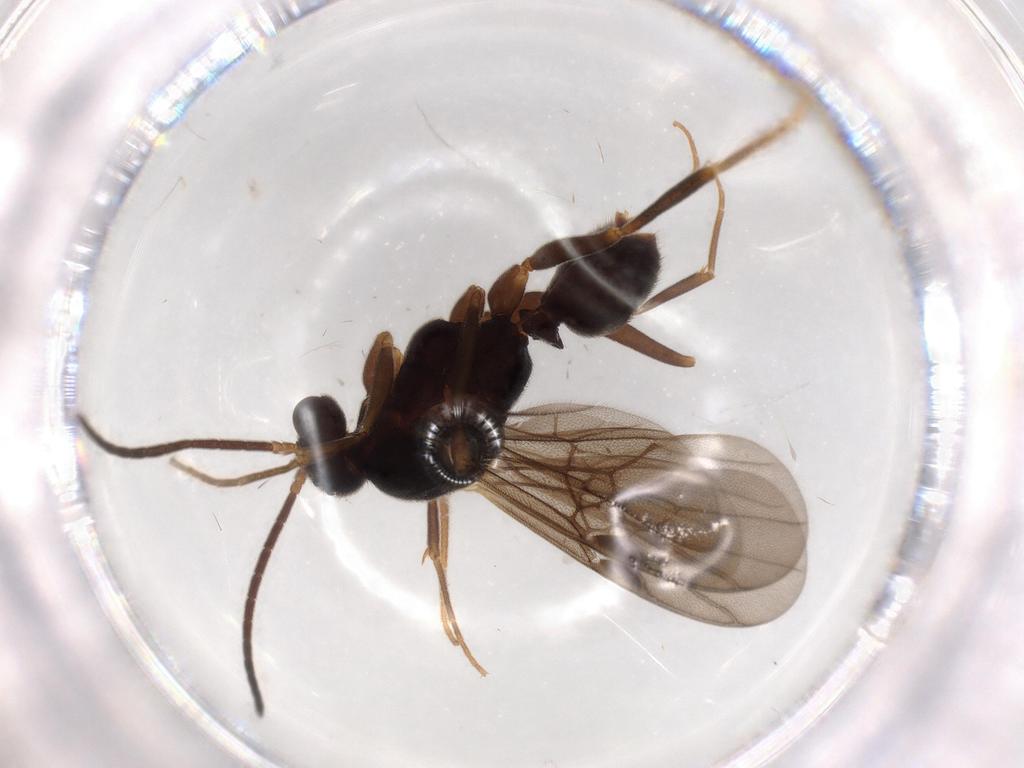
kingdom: Animalia
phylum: Arthropoda
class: Insecta
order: Hymenoptera
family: Formicidae
